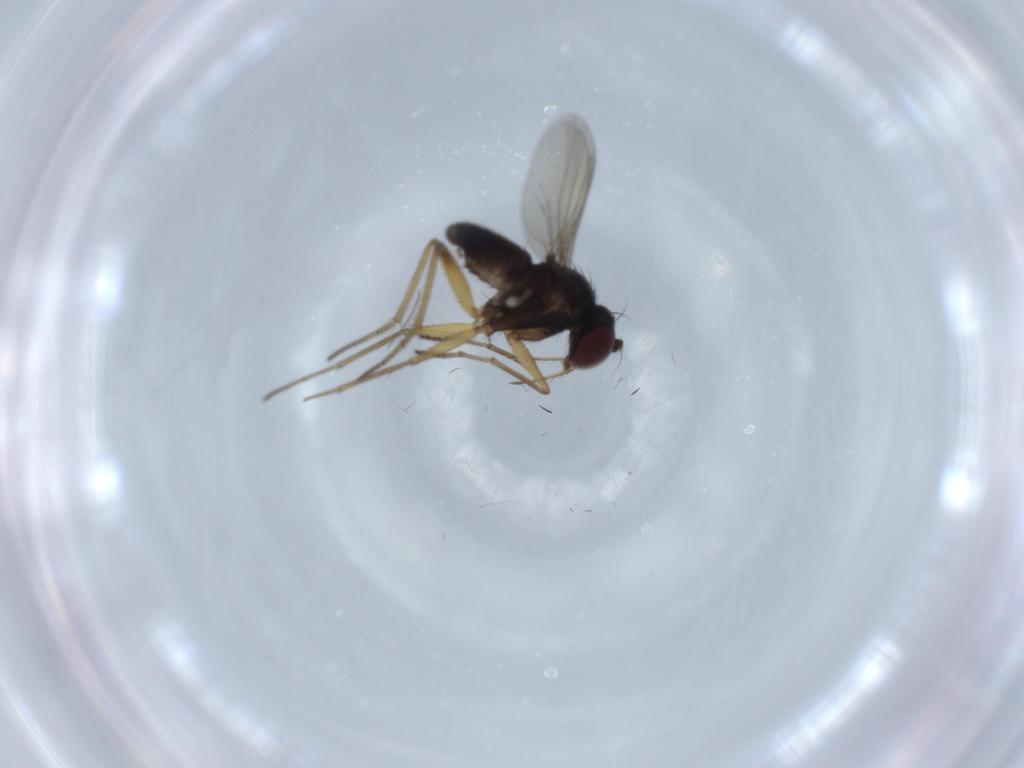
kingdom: Animalia
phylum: Arthropoda
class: Insecta
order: Diptera
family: Dolichopodidae
